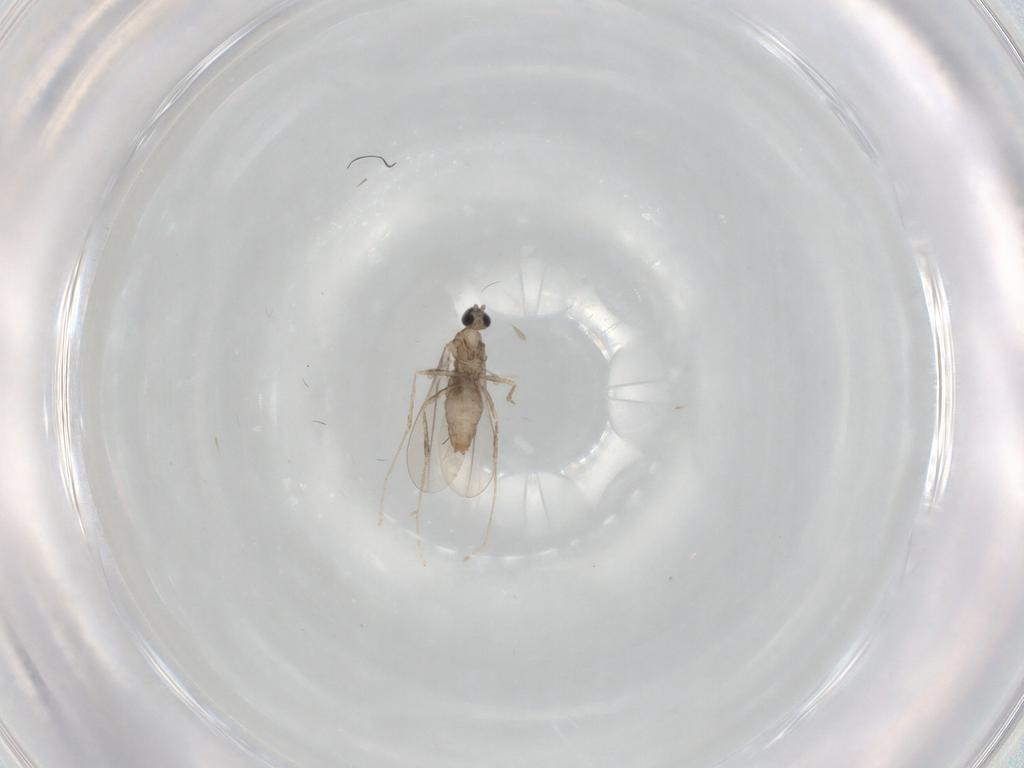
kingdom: Animalia
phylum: Arthropoda
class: Insecta
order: Diptera
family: Cecidomyiidae
